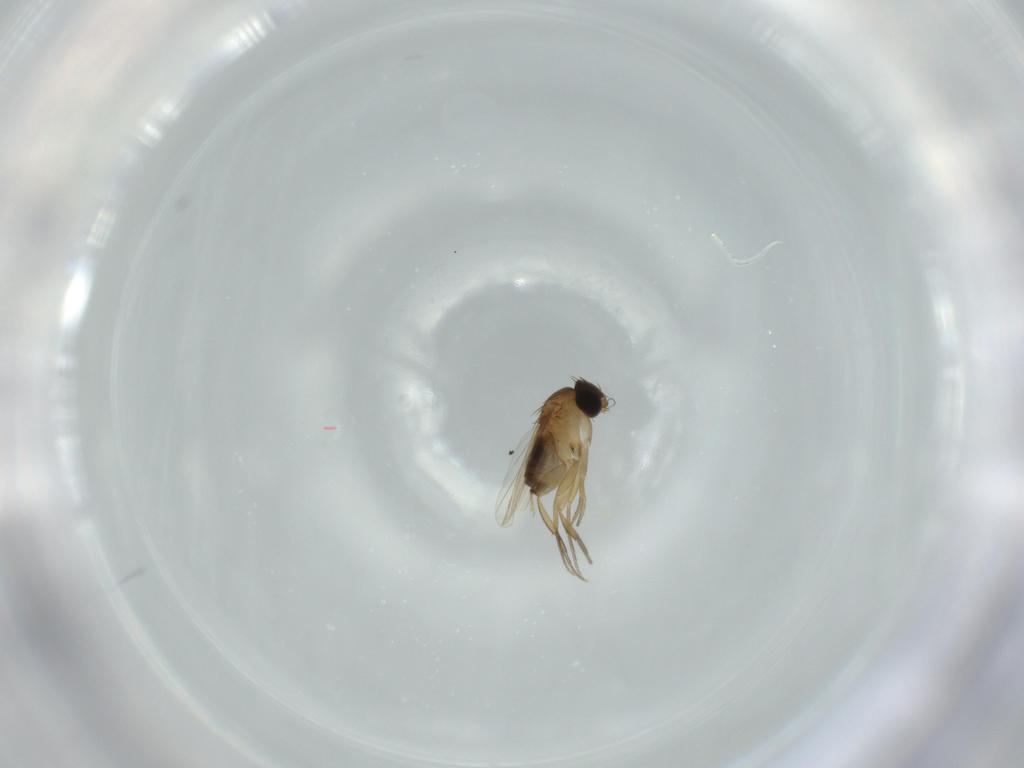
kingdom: Animalia
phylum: Arthropoda
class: Insecta
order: Diptera
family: Phoridae
